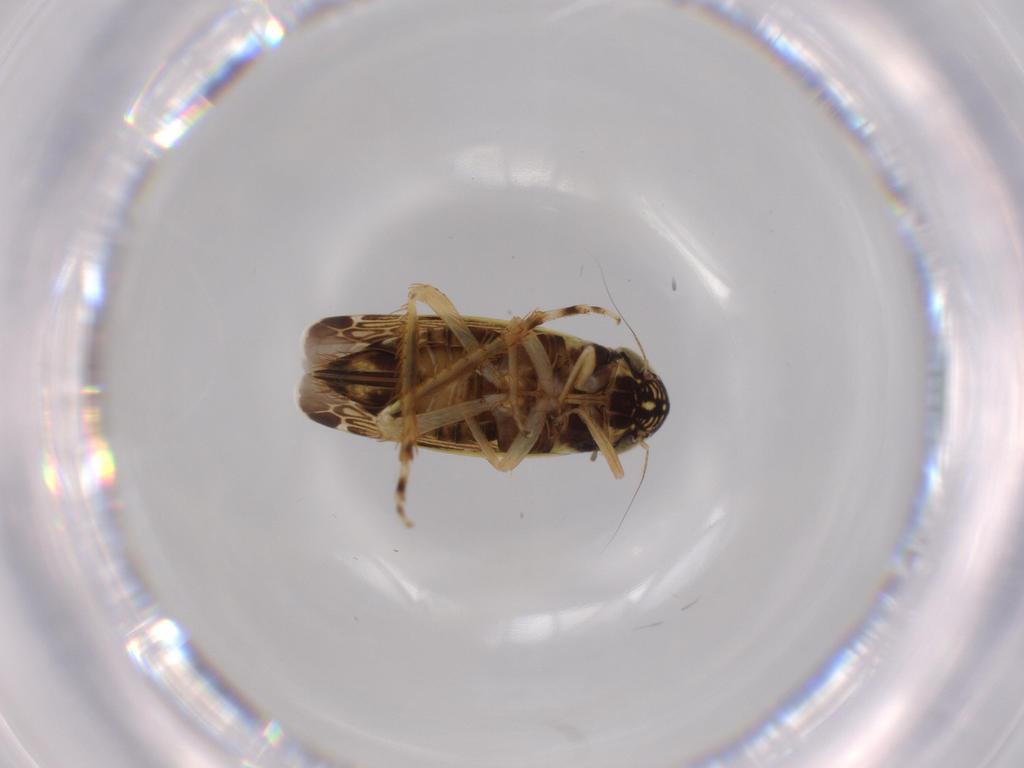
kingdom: Animalia
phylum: Arthropoda
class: Insecta
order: Hemiptera
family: Cicadellidae
